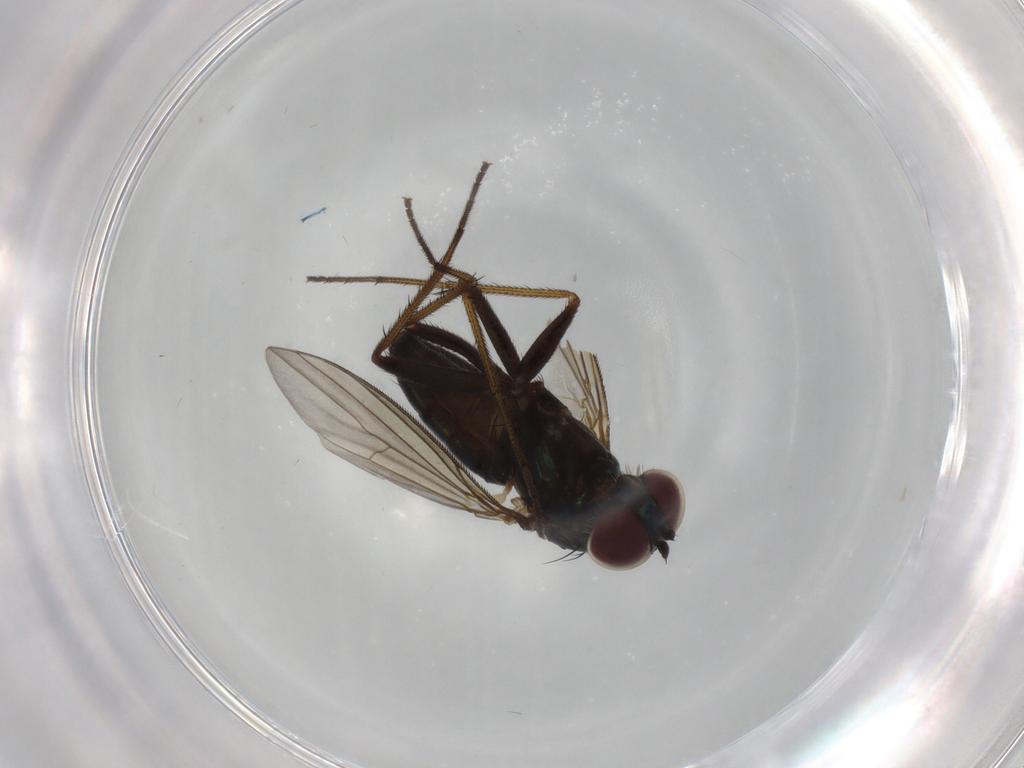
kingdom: Animalia
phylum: Arthropoda
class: Insecta
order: Diptera
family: Dolichopodidae
